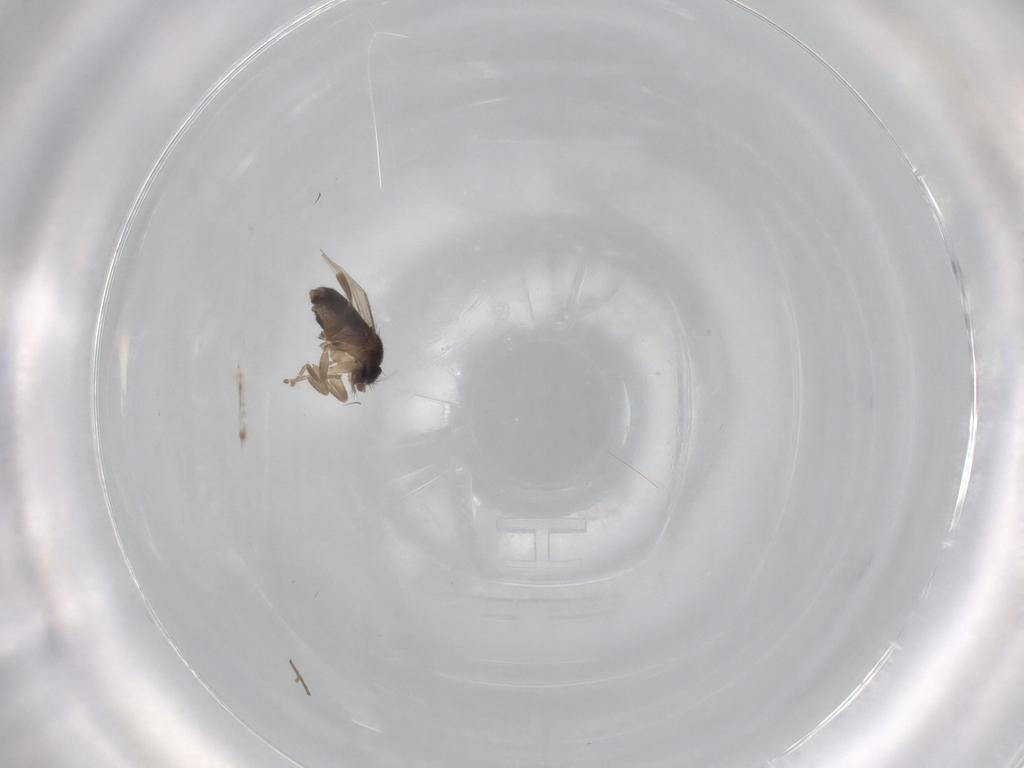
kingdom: Animalia
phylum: Arthropoda
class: Insecta
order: Diptera
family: Phoridae
